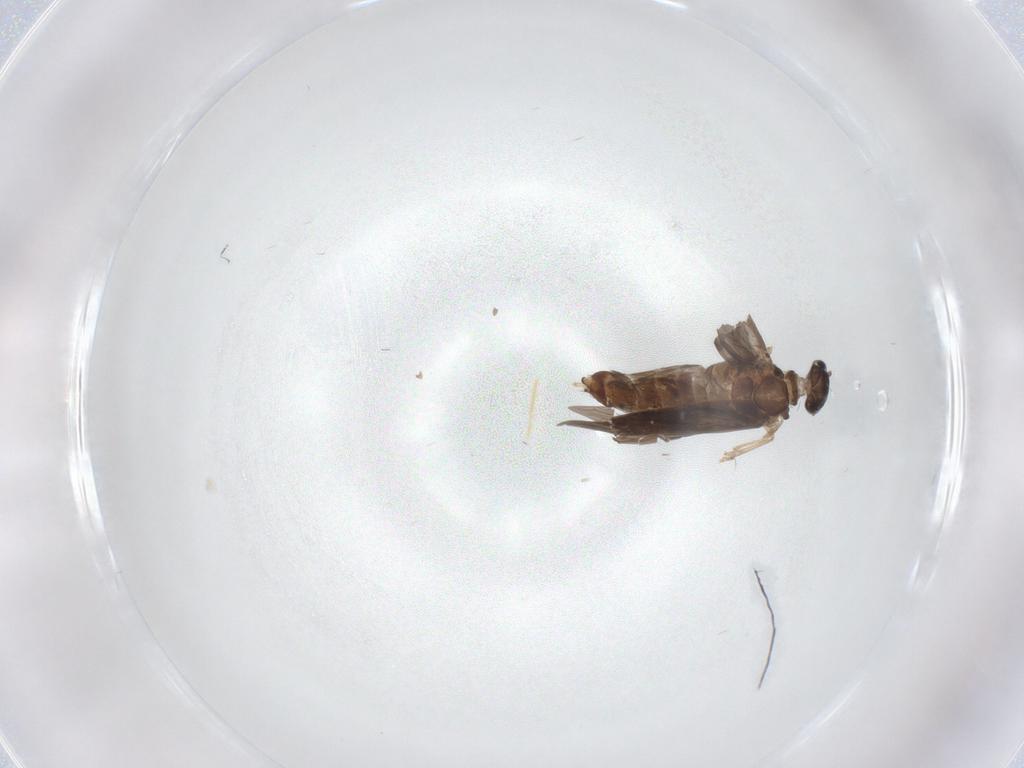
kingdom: Animalia
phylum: Arthropoda
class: Insecta
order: Trichoptera
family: Hydroptilidae
